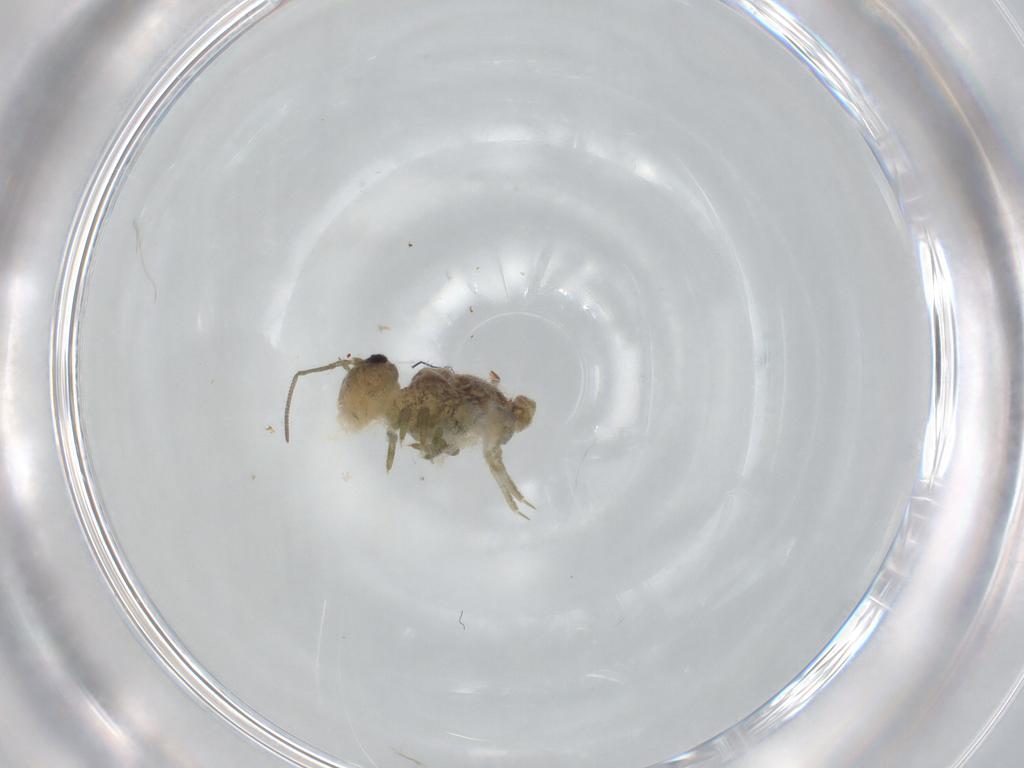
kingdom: Animalia
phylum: Arthropoda
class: Collembola
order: Symphypleona
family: Sminthuridae
